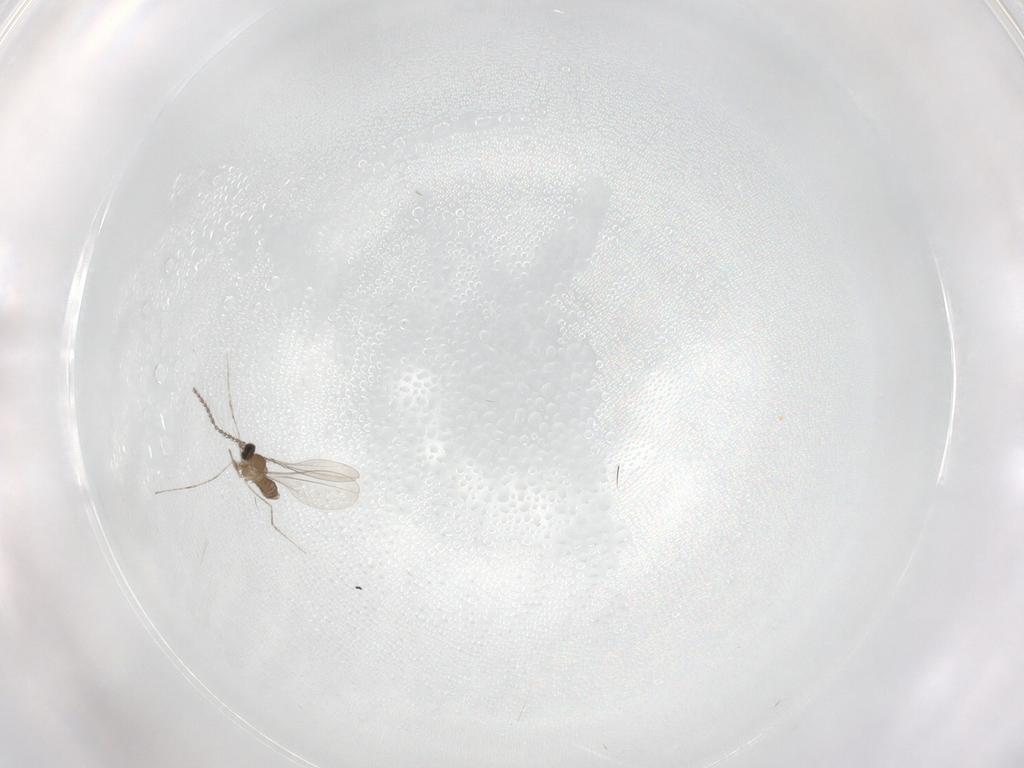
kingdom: Animalia
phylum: Arthropoda
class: Insecta
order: Diptera
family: Cecidomyiidae
